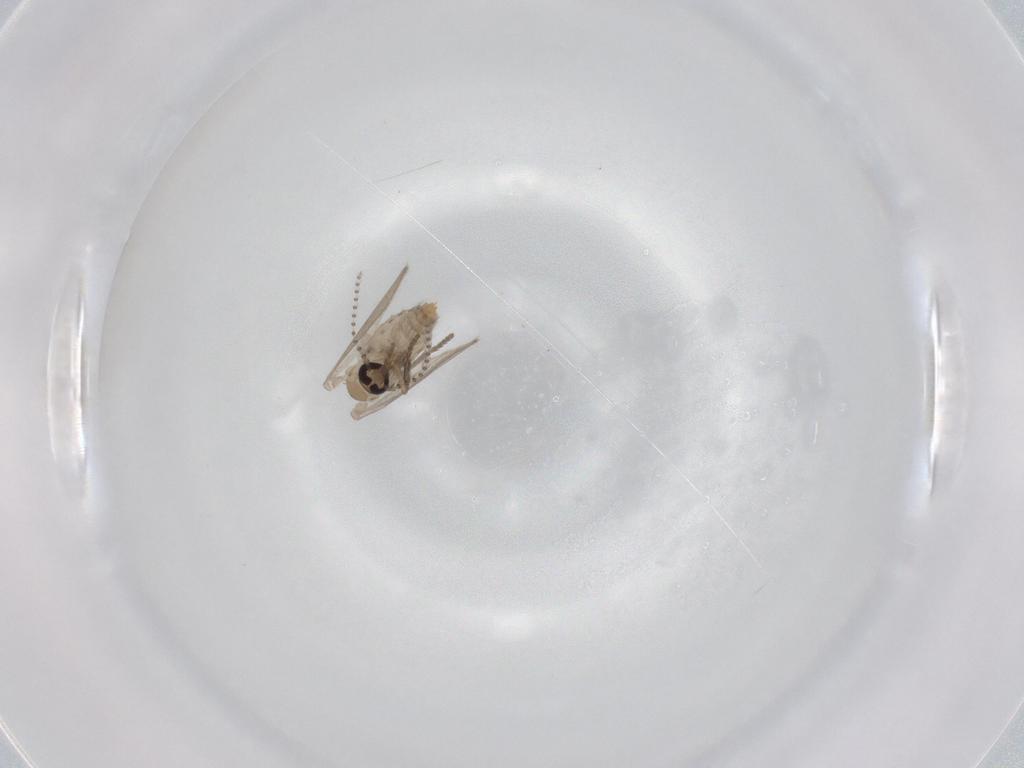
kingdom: Animalia
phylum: Arthropoda
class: Insecta
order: Diptera
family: Psychodidae
